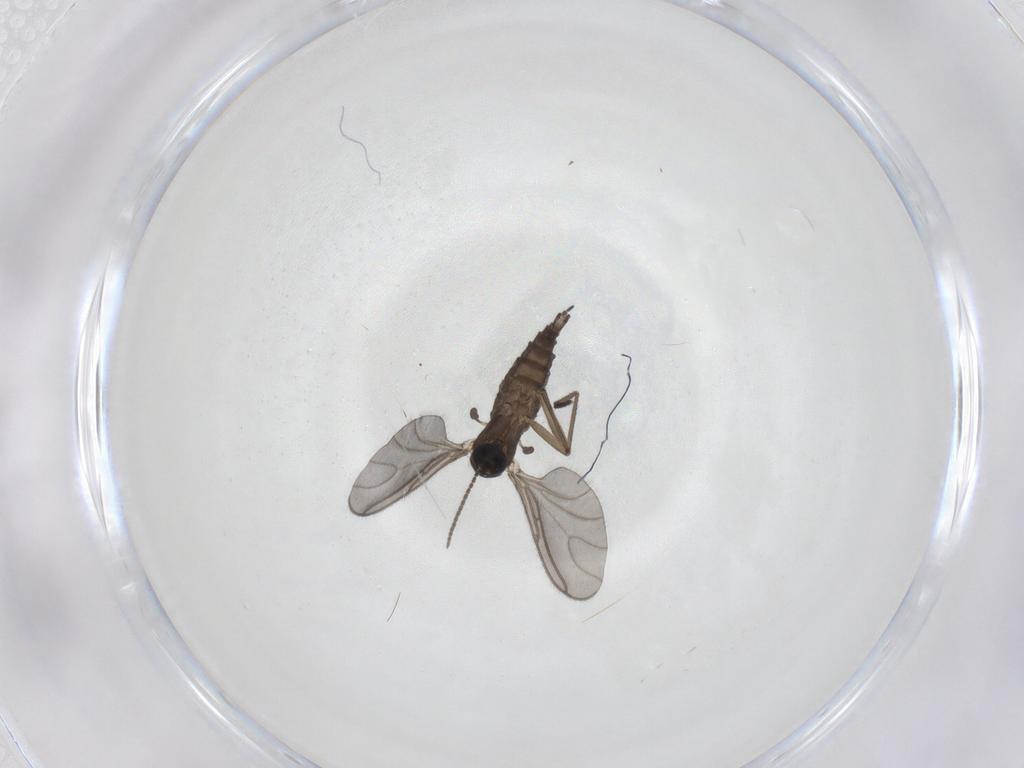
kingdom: Animalia
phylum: Arthropoda
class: Insecta
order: Diptera
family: Sciaridae
